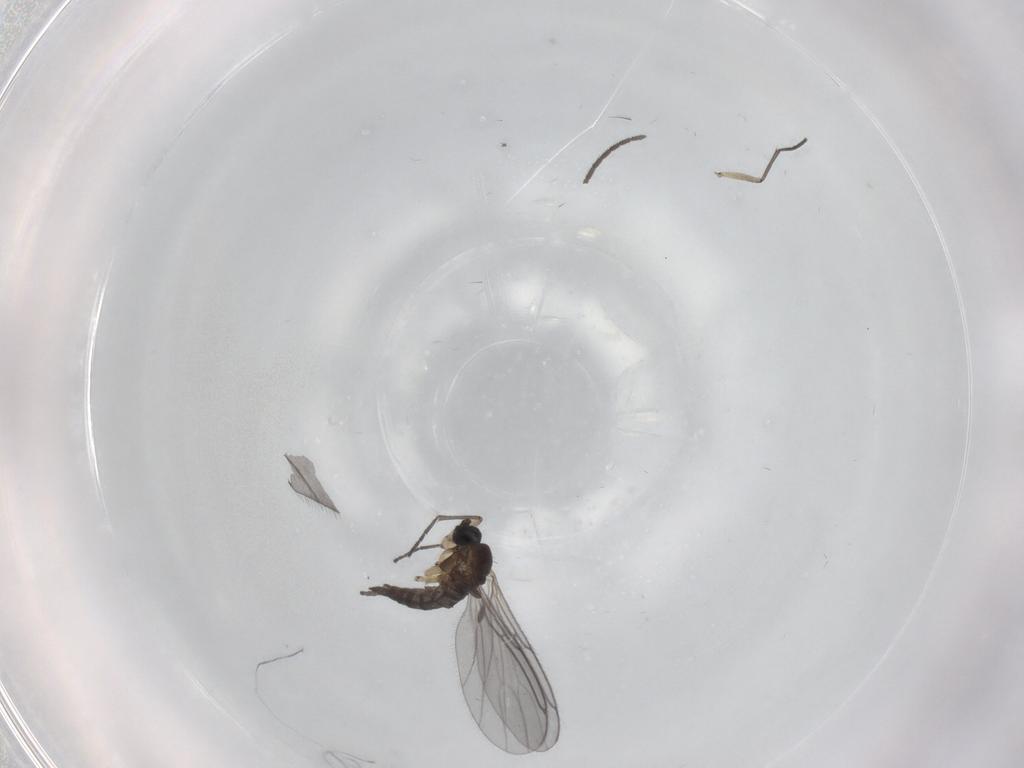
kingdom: Animalia
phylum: Arthropoda
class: Insecta
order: Diptera
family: Sciaridae
